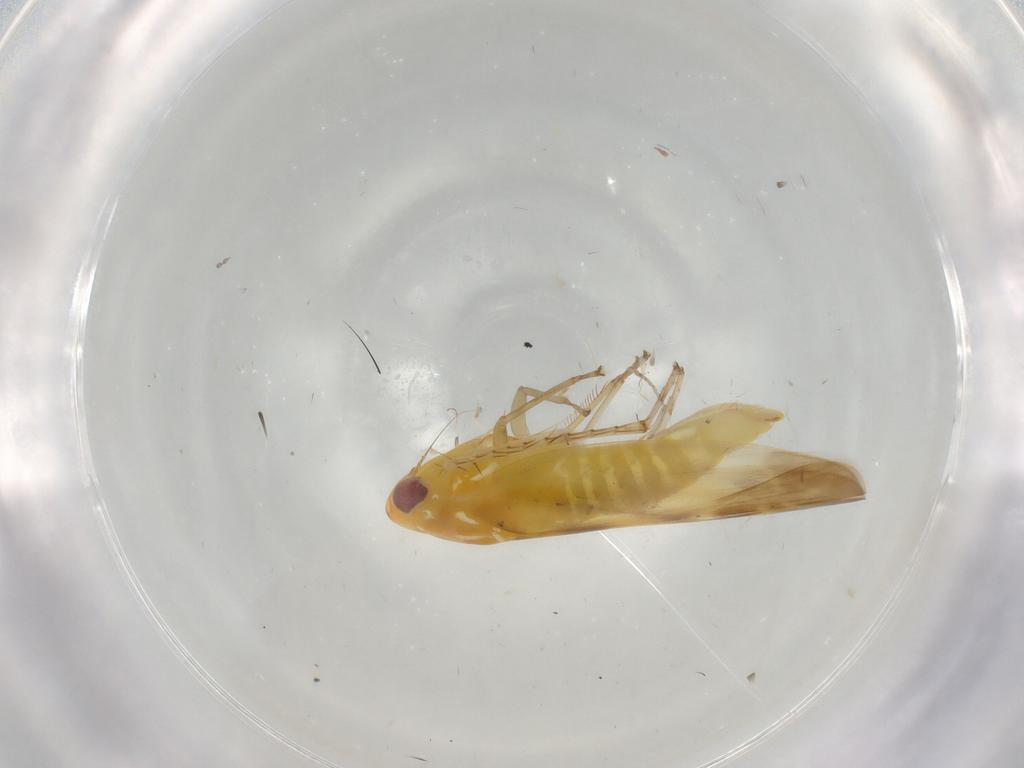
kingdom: Animalia
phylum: Arthropoda
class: Insecta
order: Hemiptera
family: Cicadellidae
